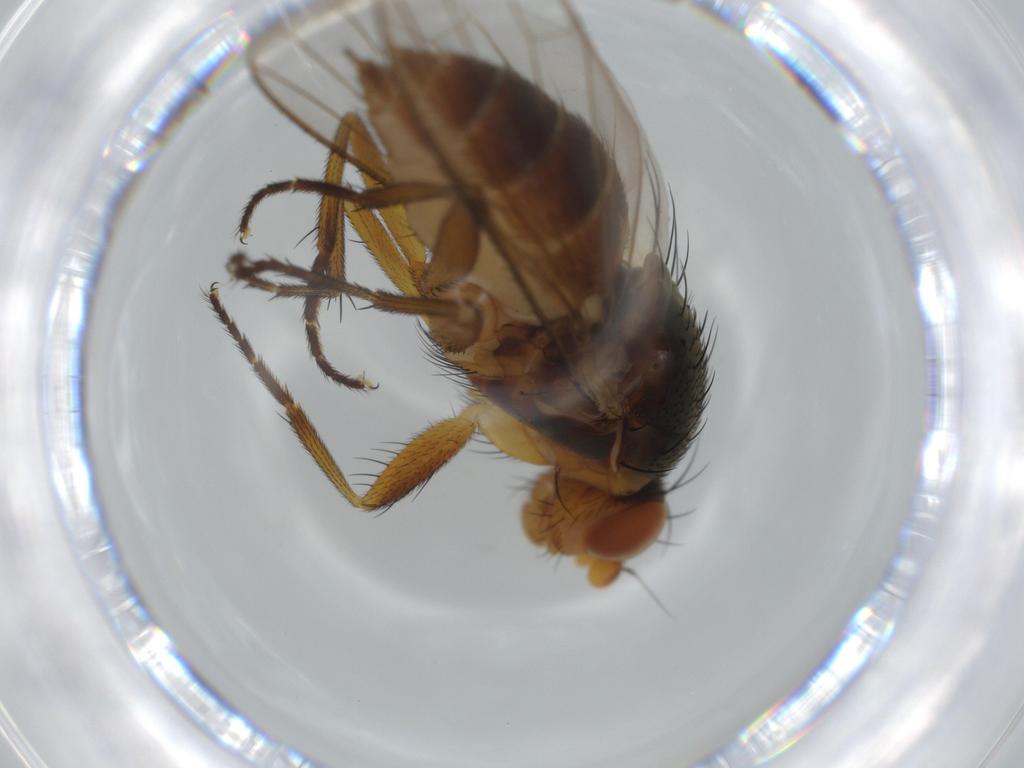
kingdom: Animalia
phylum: Arthropoda
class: Insecta
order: Diptera
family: Heleomyzidae
